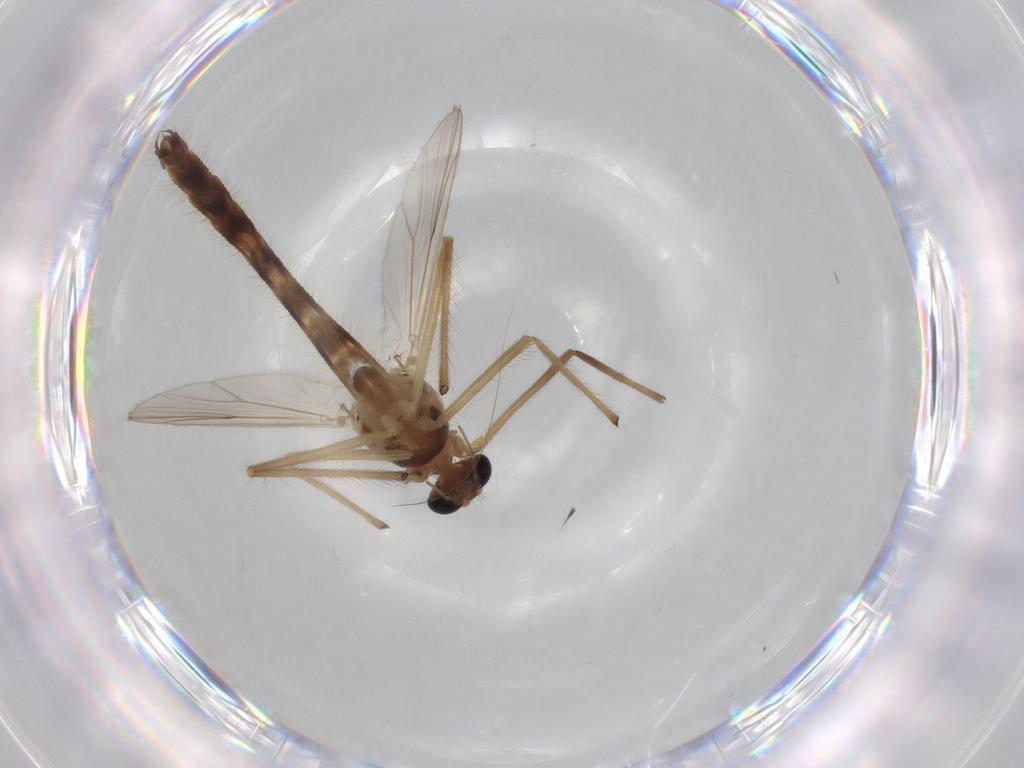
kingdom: Animalia
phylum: Arthropoda
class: Insecta
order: Diptera
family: Chironomidae
